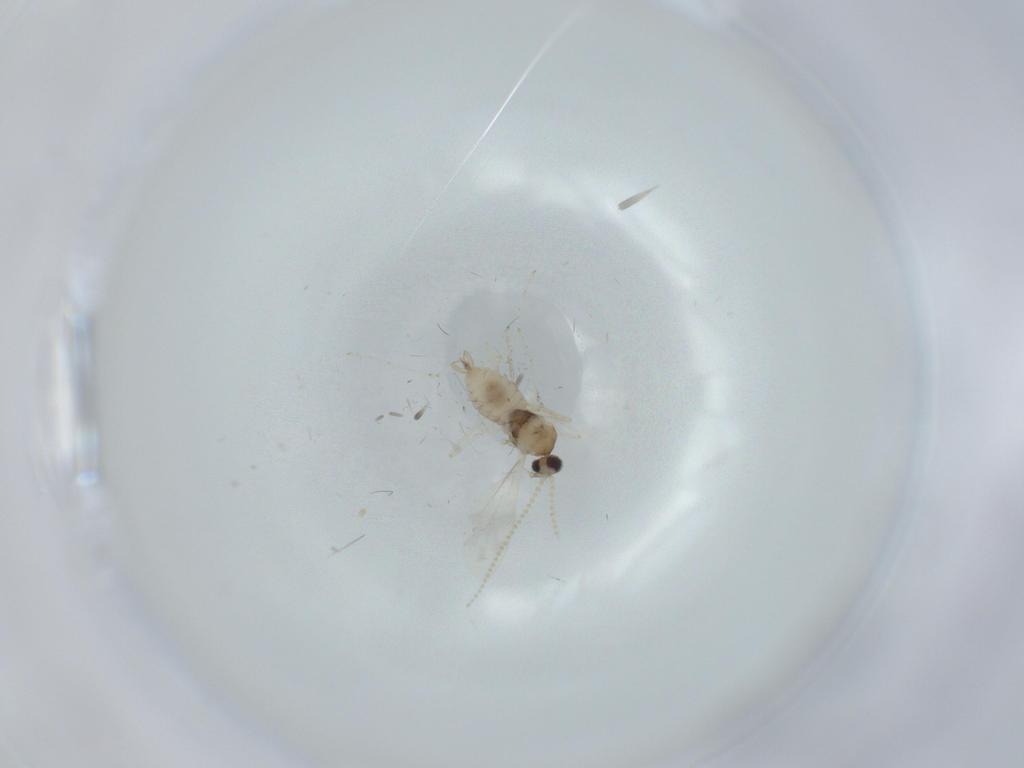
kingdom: Animalia
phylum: Arthropoda
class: Insecta
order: Diptera
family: Cecidomyiidae
